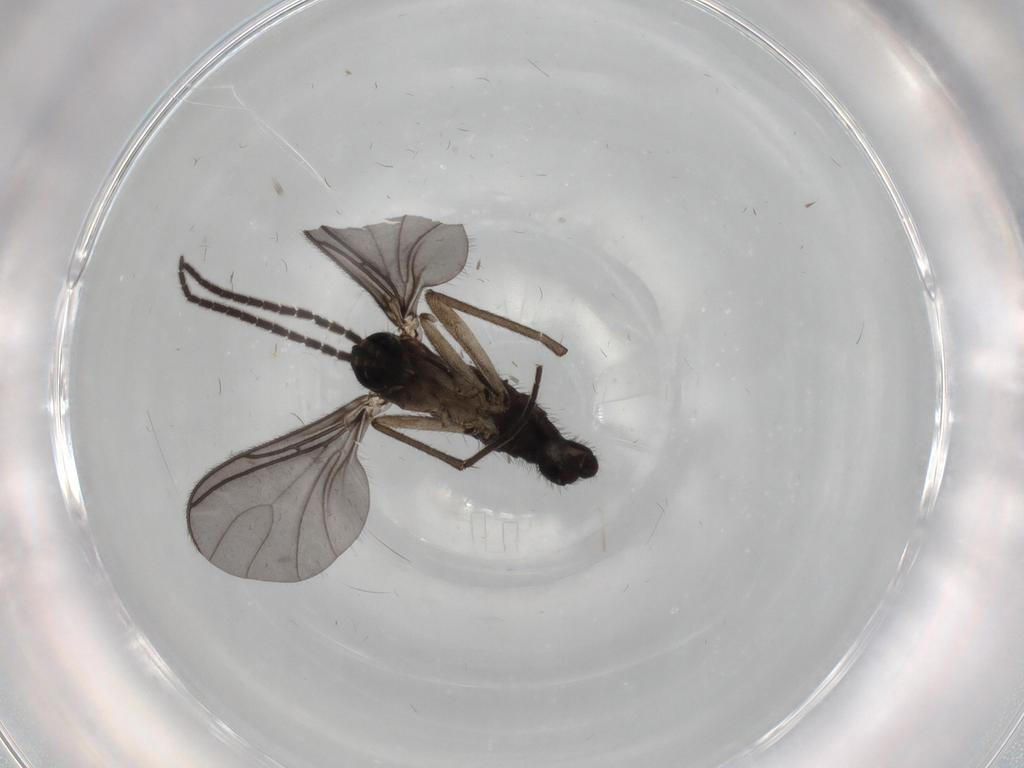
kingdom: Animalia
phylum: Arthropoda
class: Insecta
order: Diptera
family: Sciaridae
